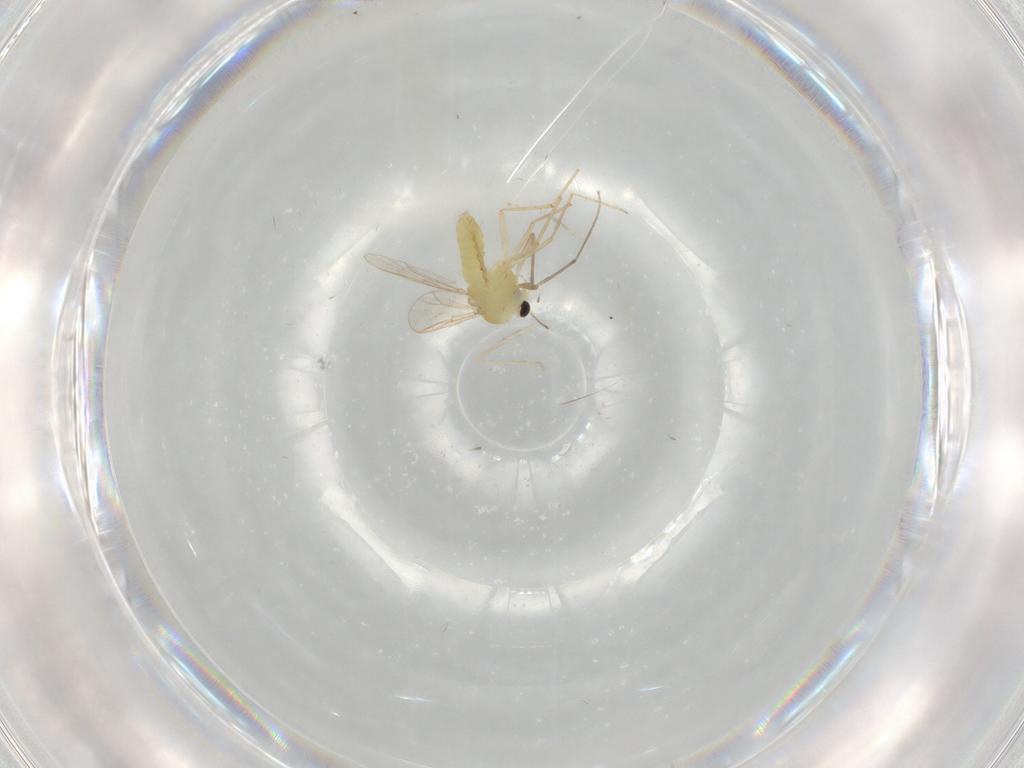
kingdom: Animalia
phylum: Arthropoda
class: Insecta
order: Diptera
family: Chironomidae
